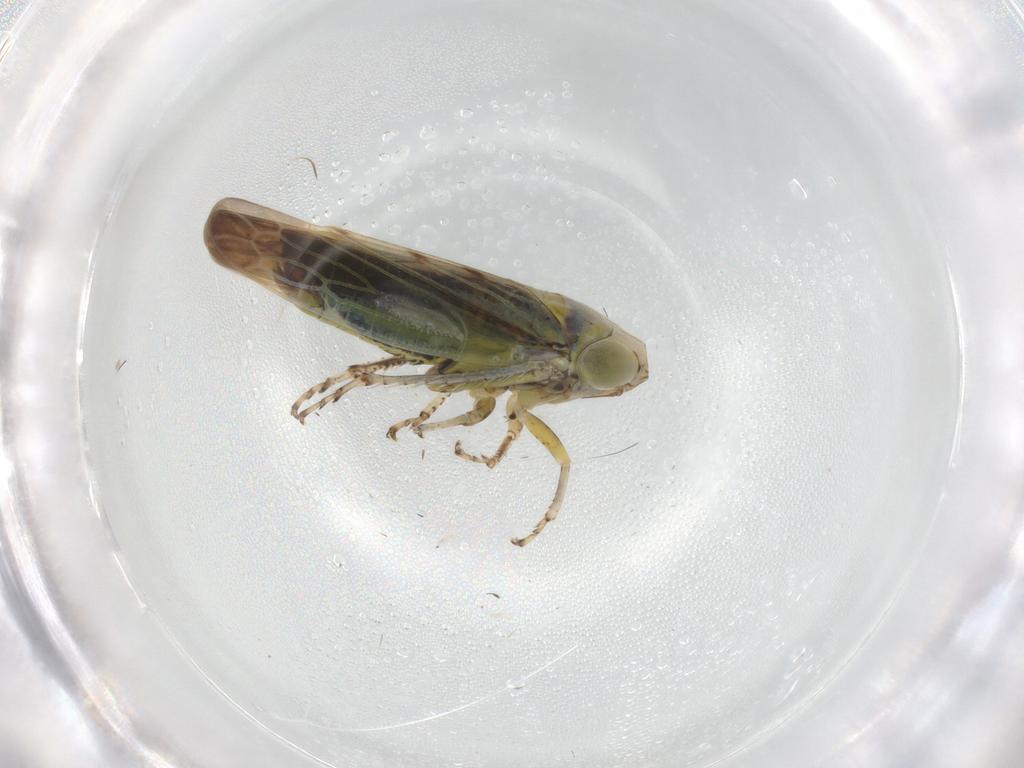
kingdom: Animalia
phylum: Arthropoda
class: Insecta
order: Hemiptera
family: Cicadellidae
